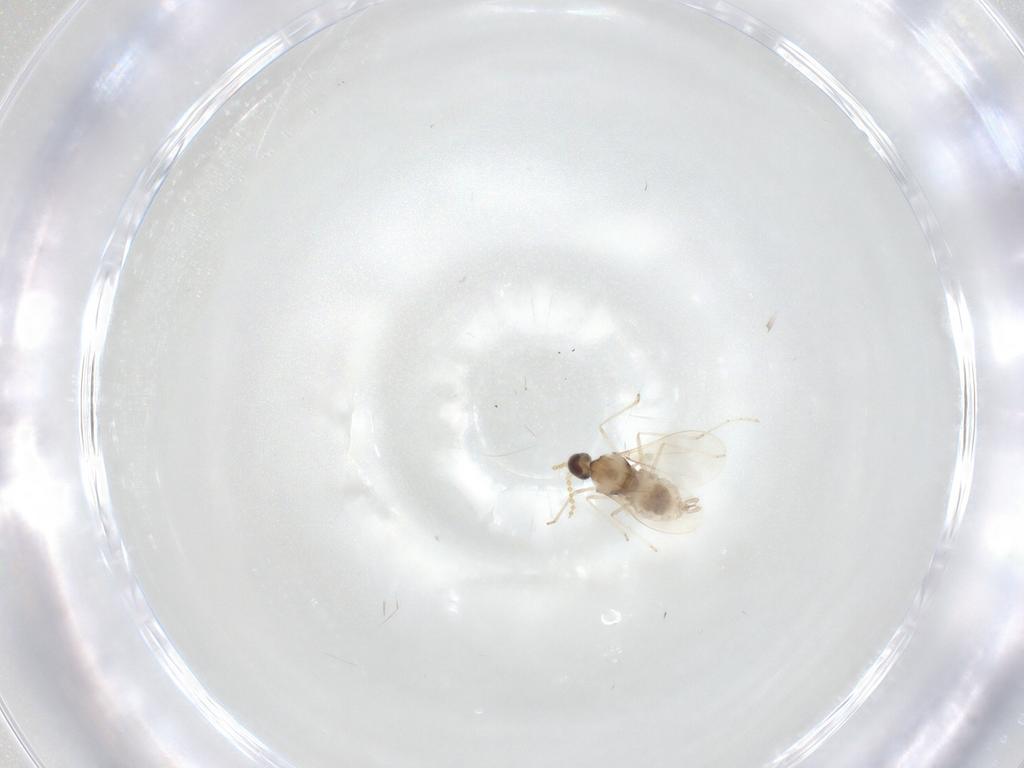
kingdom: Animalia
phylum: Arthropoda
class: Insecta
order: Diptera
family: Cecidomyiidae
